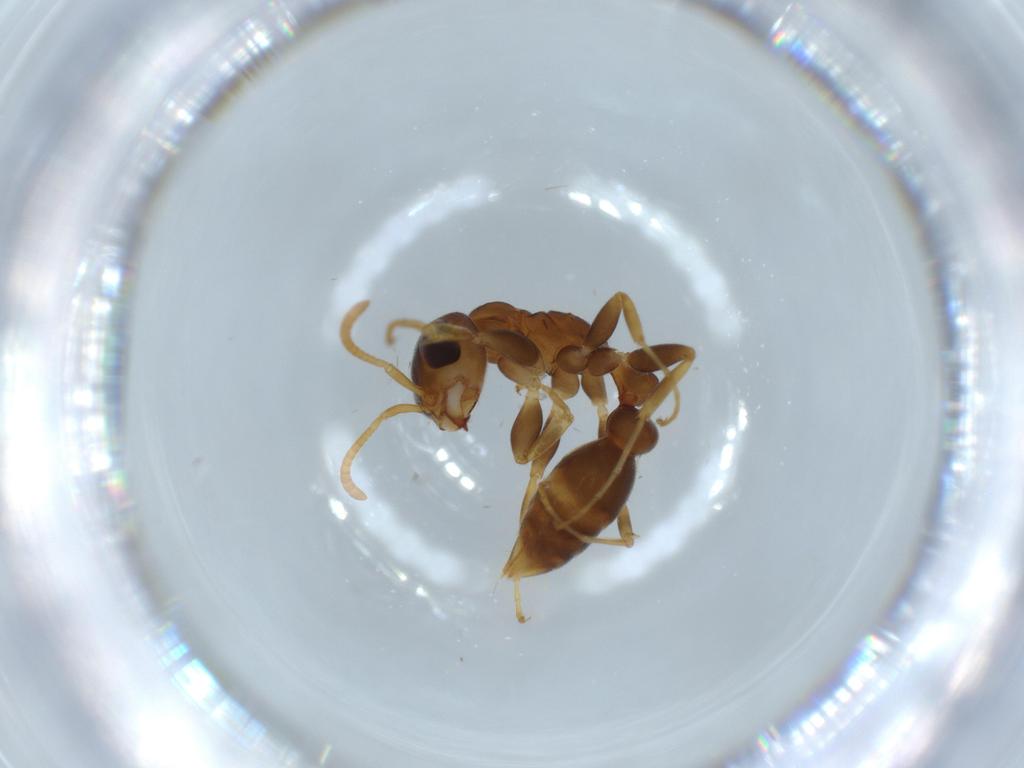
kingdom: Animalia
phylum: Arthropoda
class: Insecta
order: Hymenoptera
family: Formicidae
